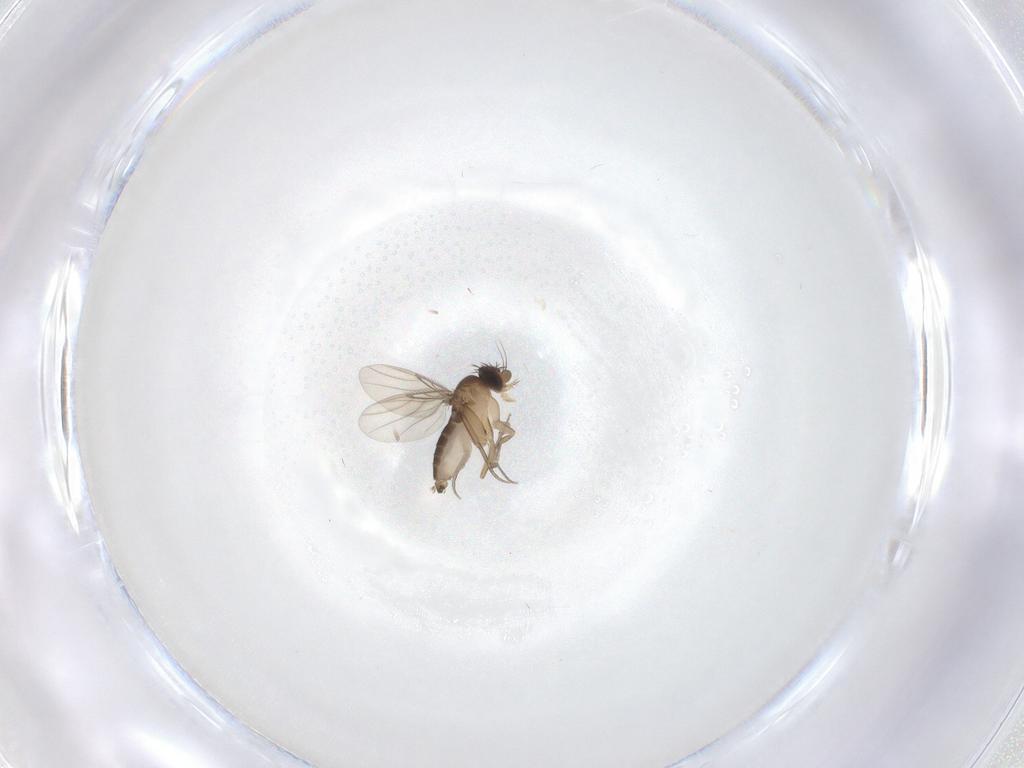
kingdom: Animalia
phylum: Arthropoda
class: Insecta
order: Diptera
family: Phoridae
